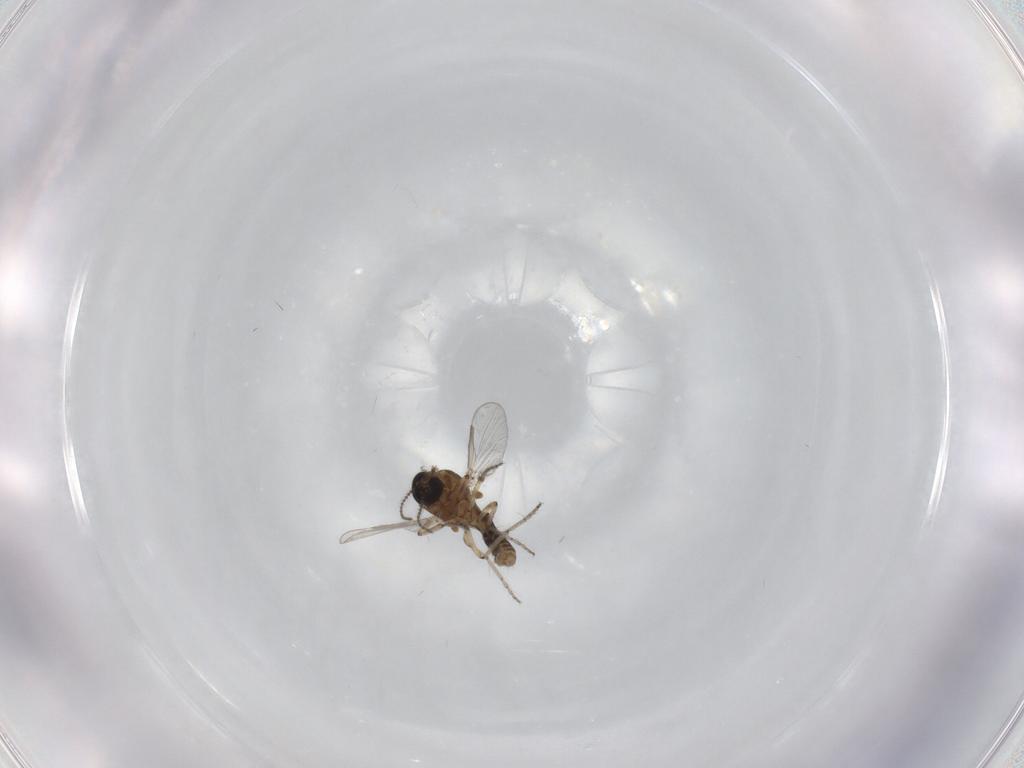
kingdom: Animalia
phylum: Arthropoda
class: Insecta
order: Diptera
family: Ceratopogonidae
